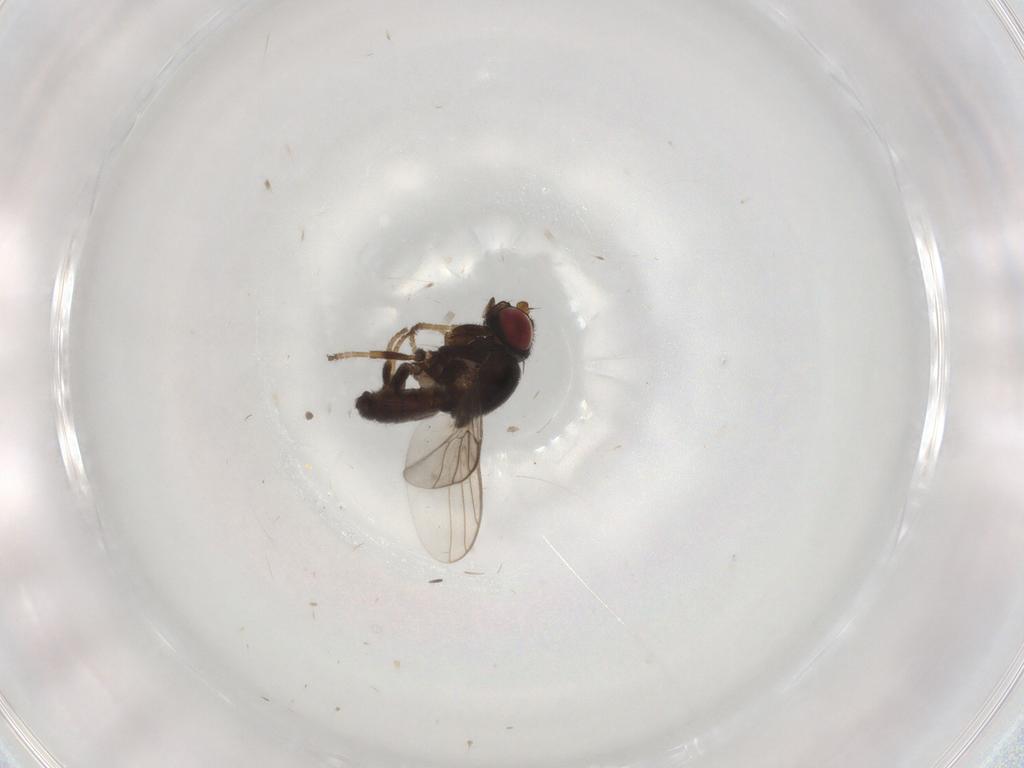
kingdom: Animalia
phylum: Arthropoda
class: Insecta
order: Diptera
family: Chloropidae
